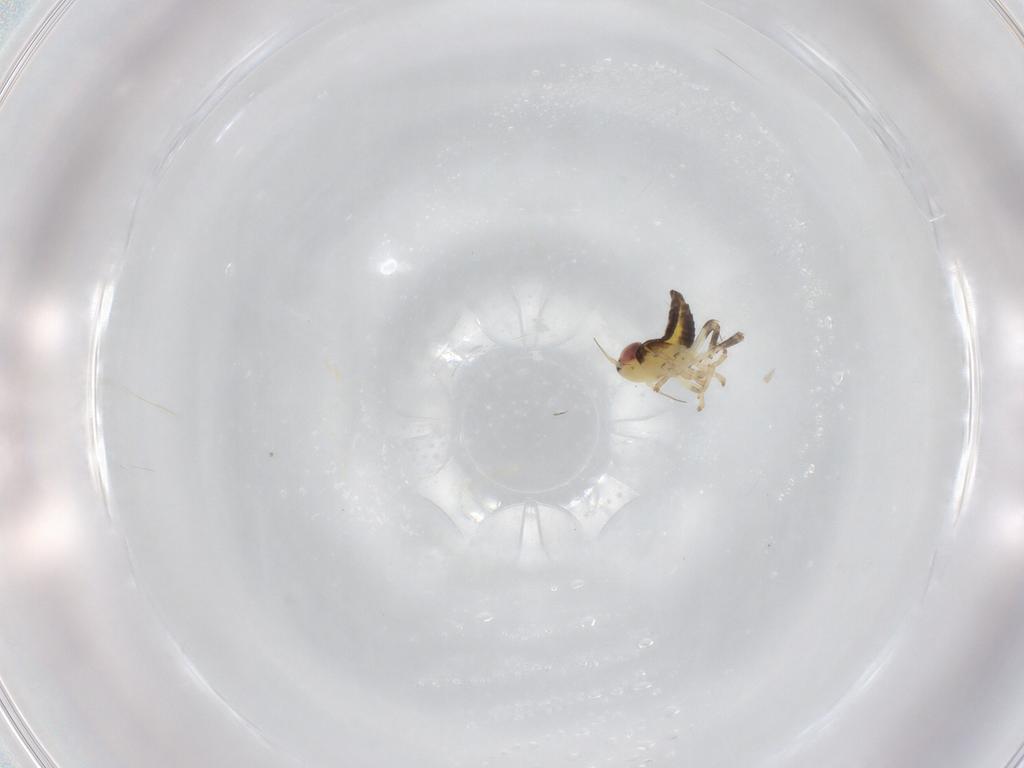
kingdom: Animalia
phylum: Arthropoda
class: Insecta
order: Hemiptera
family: Cicadellidae
